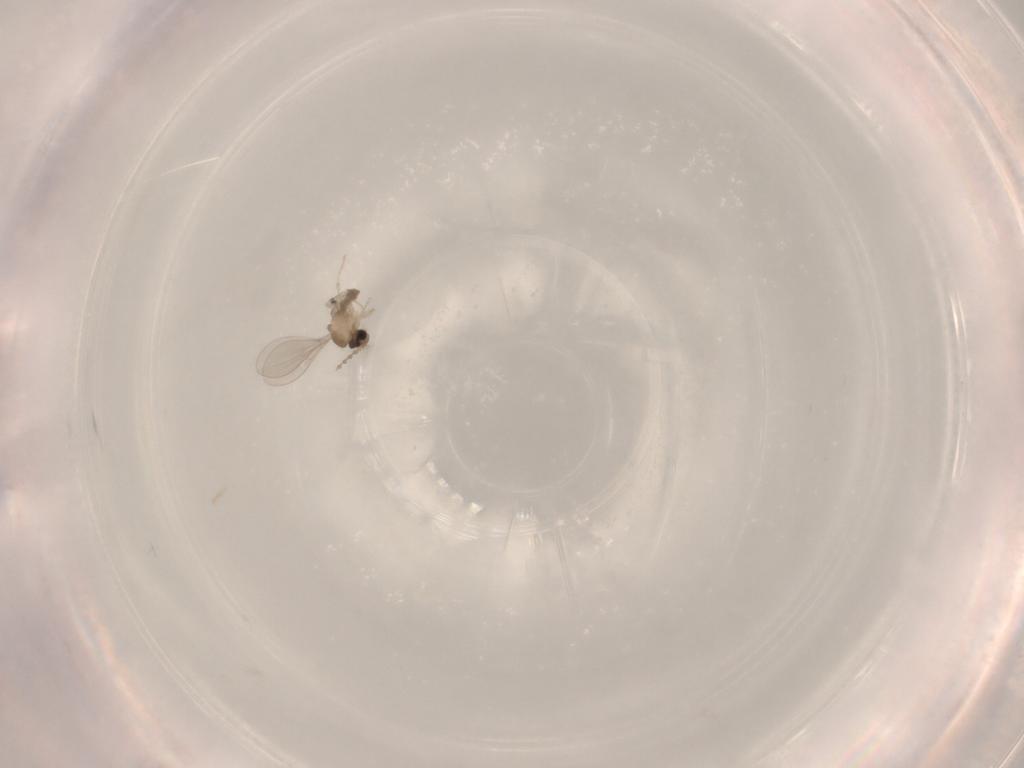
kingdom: Animalia
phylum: Arthropoda
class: Insecta
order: Diptera
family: Cecidomyiidae
